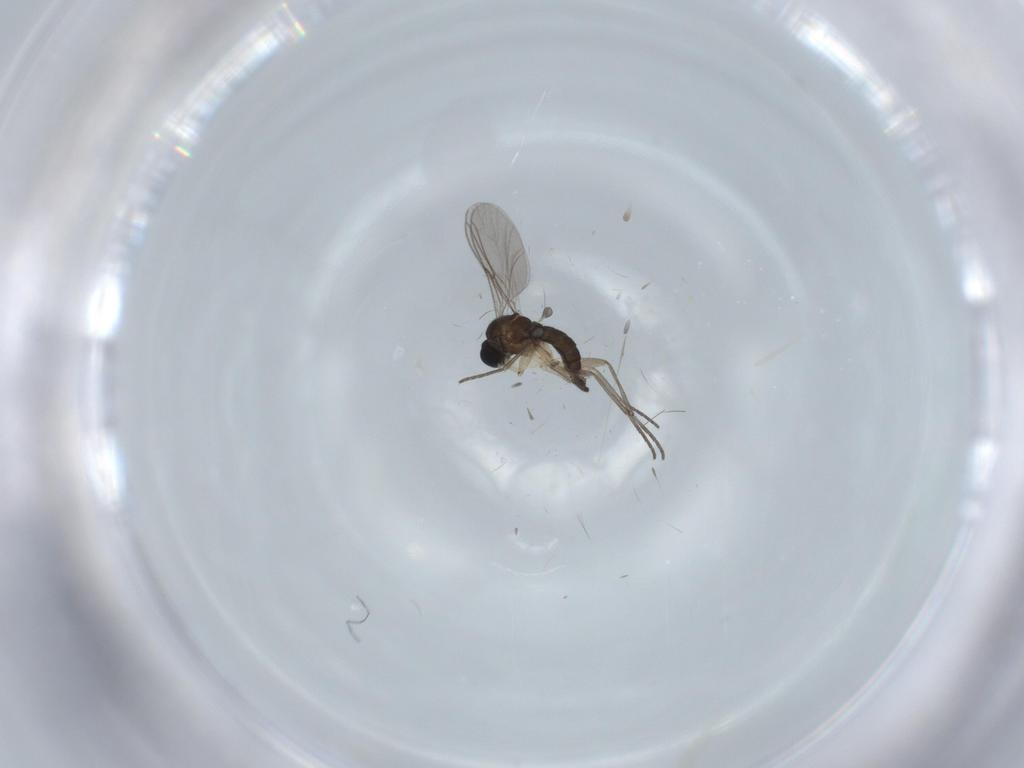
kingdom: Animalia
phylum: Arthropoda
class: Insecta
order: Diptera
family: Sciaridae
